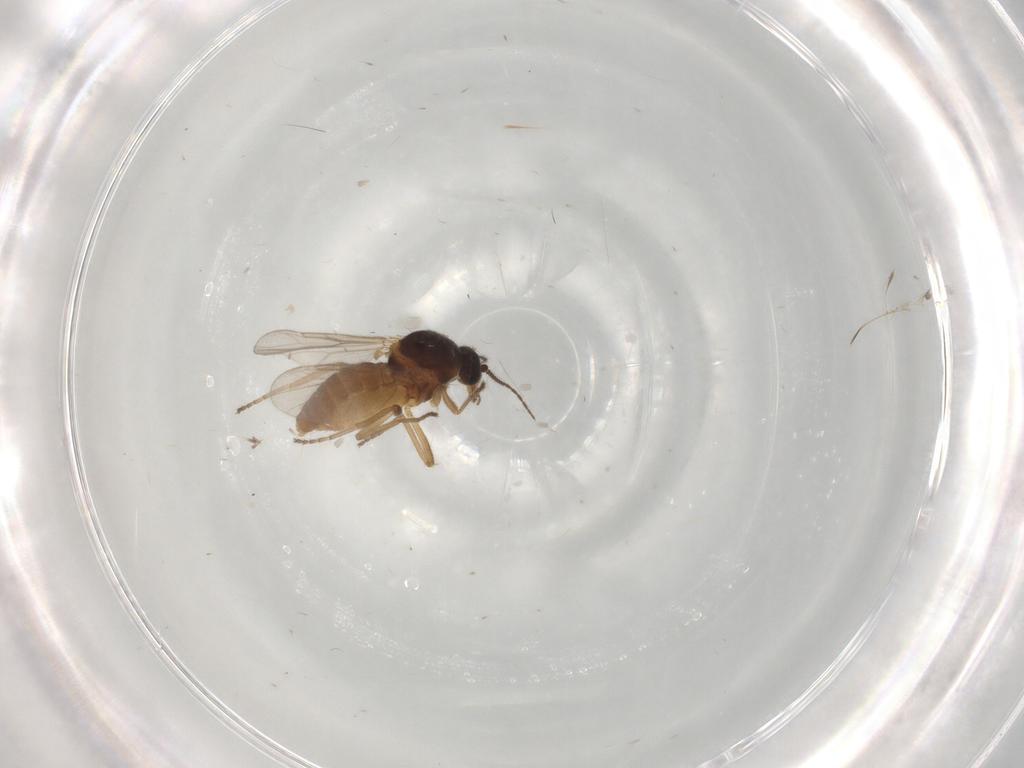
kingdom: Animalia
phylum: Arthropoda
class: Insecta
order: Diptera
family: Ceratopogonidae
